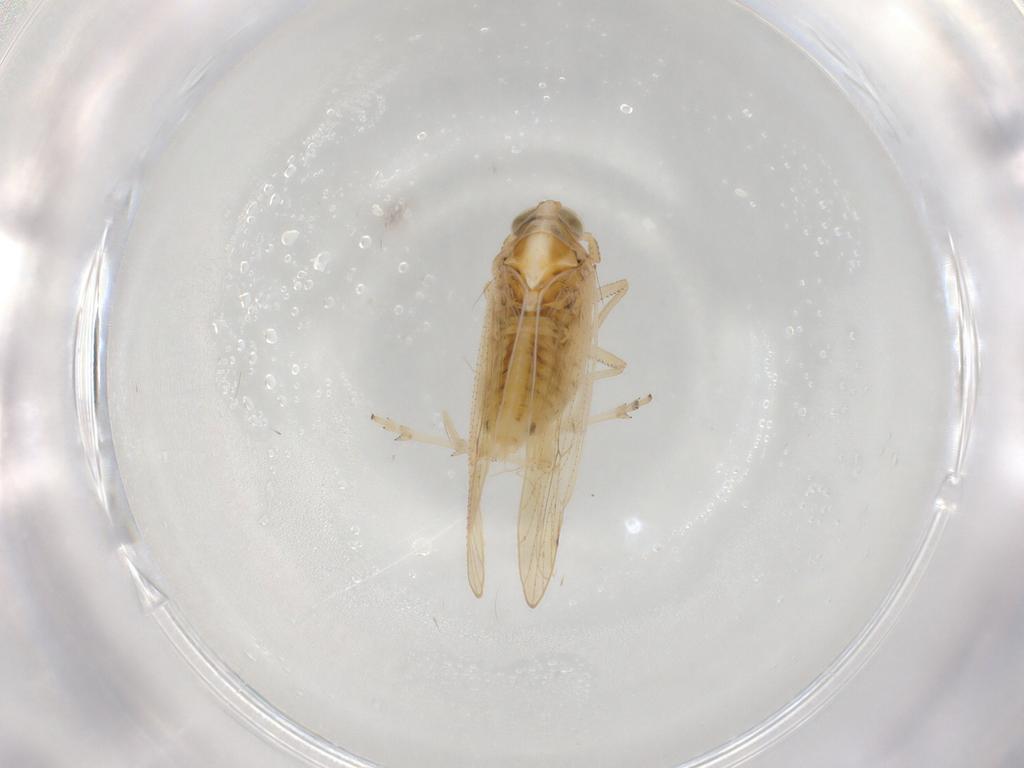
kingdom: Animalia
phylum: Arthropoda
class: Insecta
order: Hemiptera
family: Delphacidae
